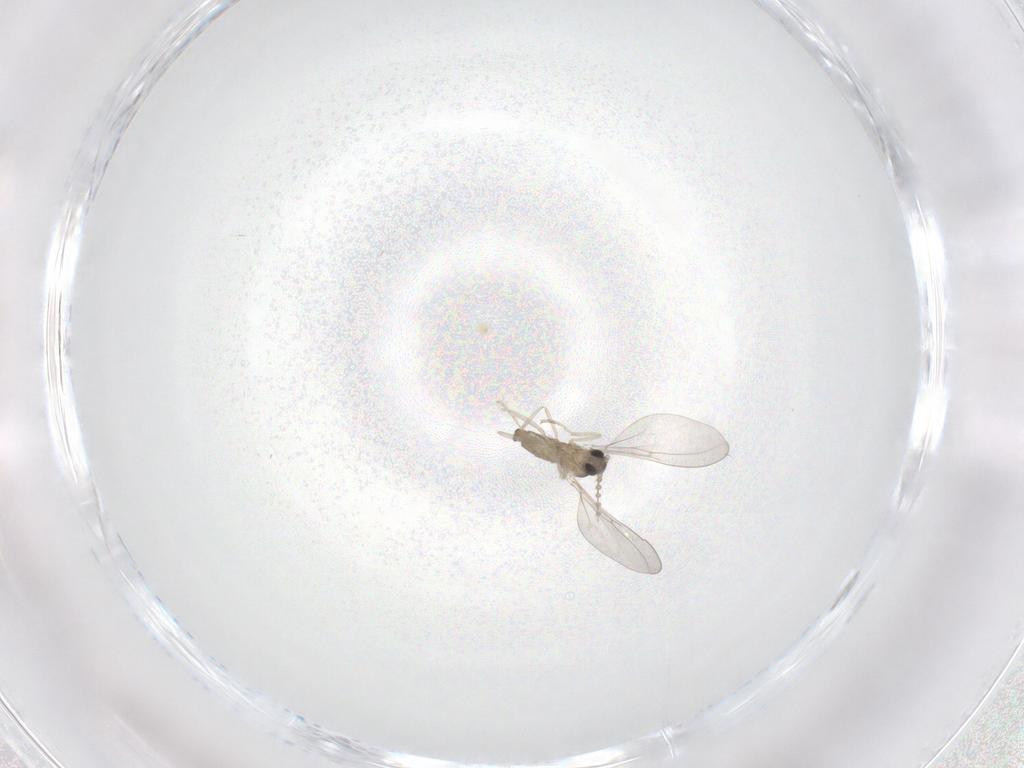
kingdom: Animalia
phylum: Arthropoda
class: Insecta
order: Diptera
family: Cecidomyiidae
